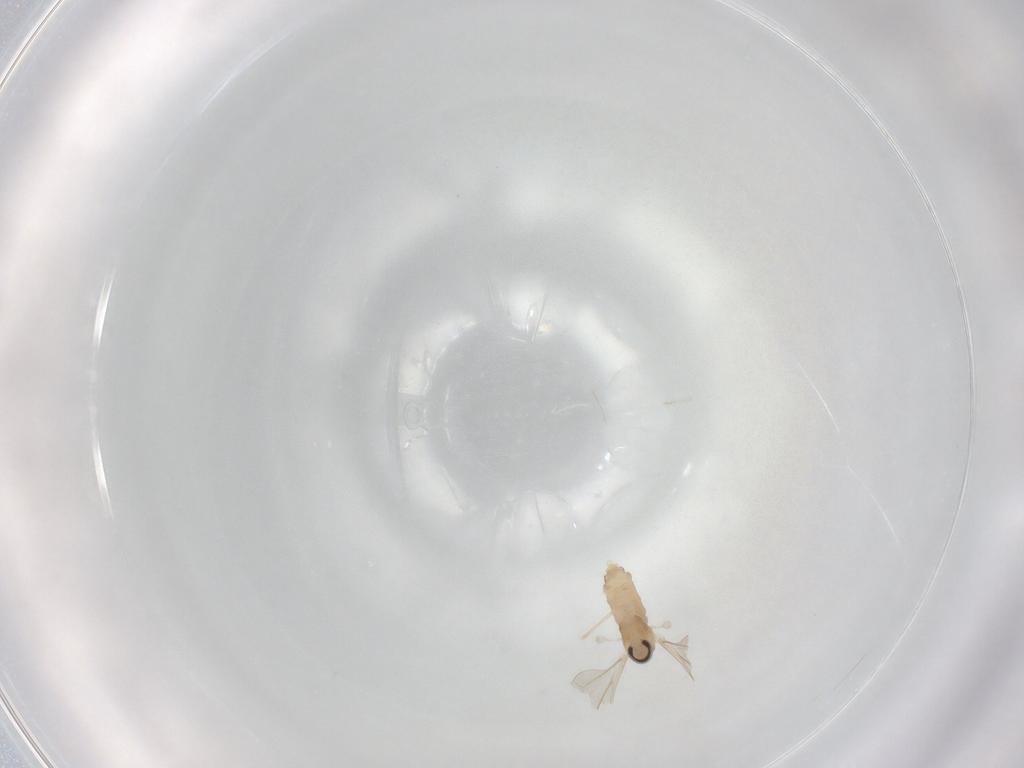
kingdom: Animalia
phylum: Arthropoda
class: Insecta
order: Diptera
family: Cecidomyiidae
